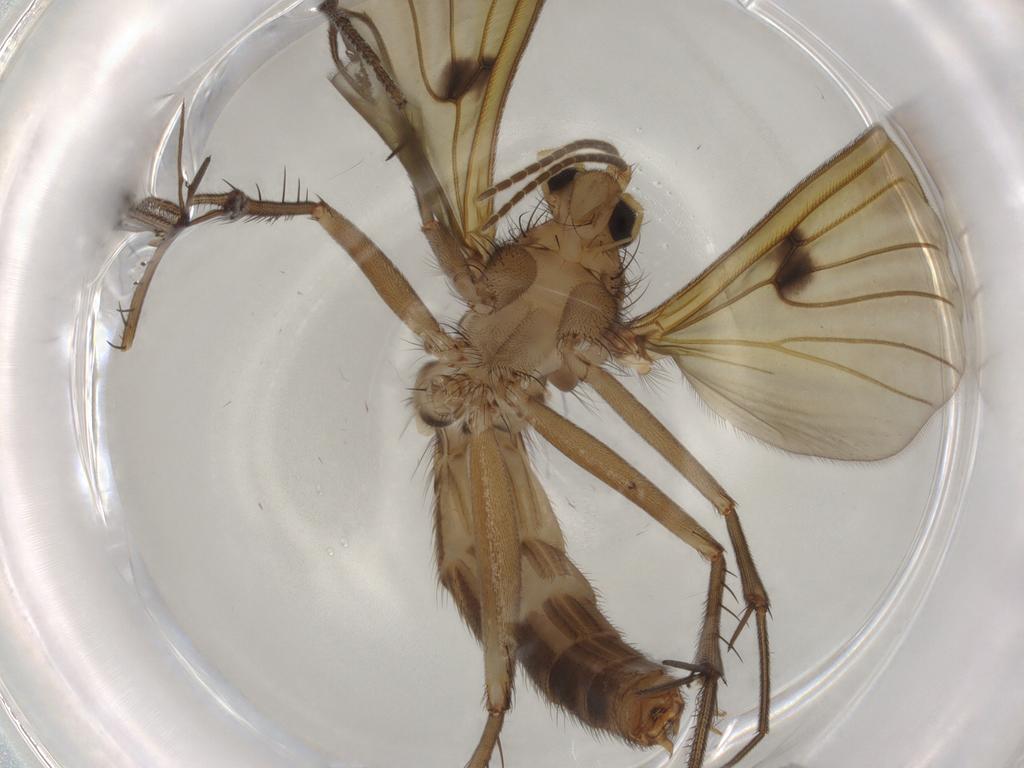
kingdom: Animalia
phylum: Arthropoda
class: Insecta
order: Diptera
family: Mycetophilidae
